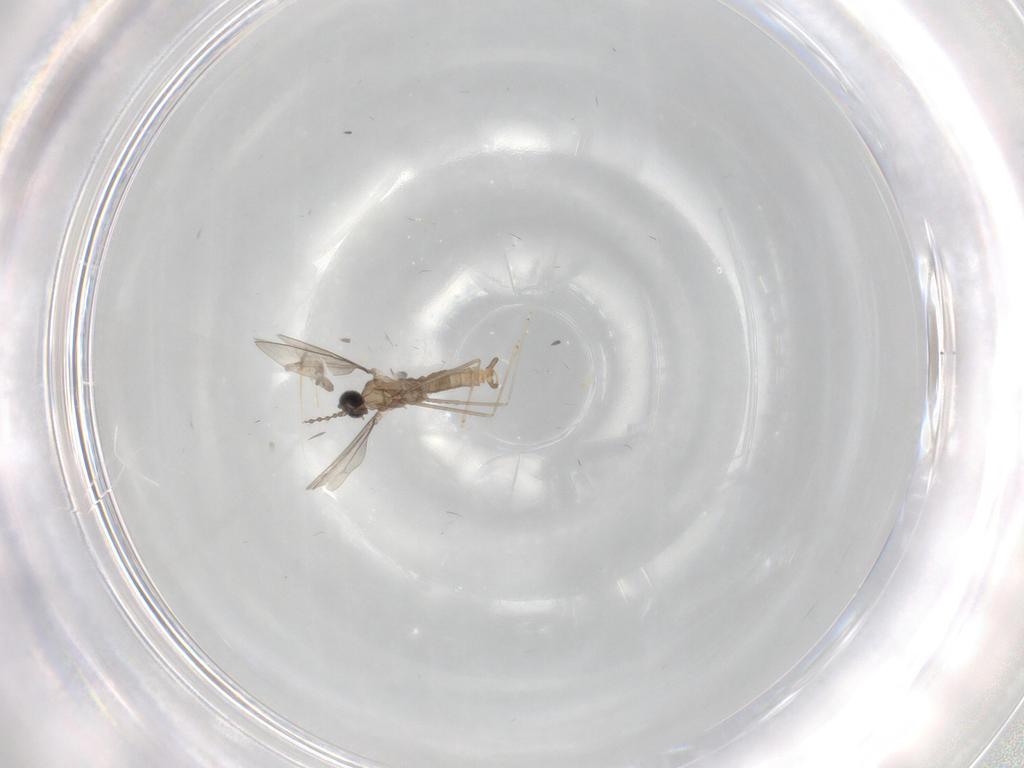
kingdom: Animalia
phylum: Arthropoda
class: Insecta
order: Diptera
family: Cecidomyiidae
